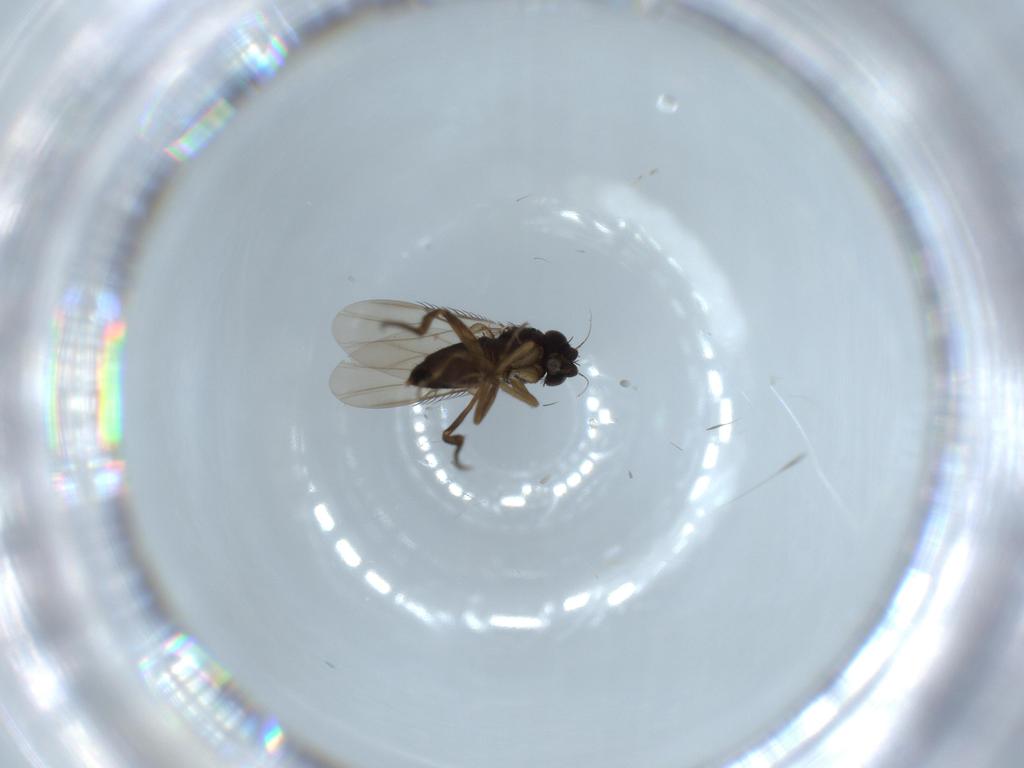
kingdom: Animalia
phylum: Arthropoda
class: Insecta
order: Diptera
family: Phoridae
